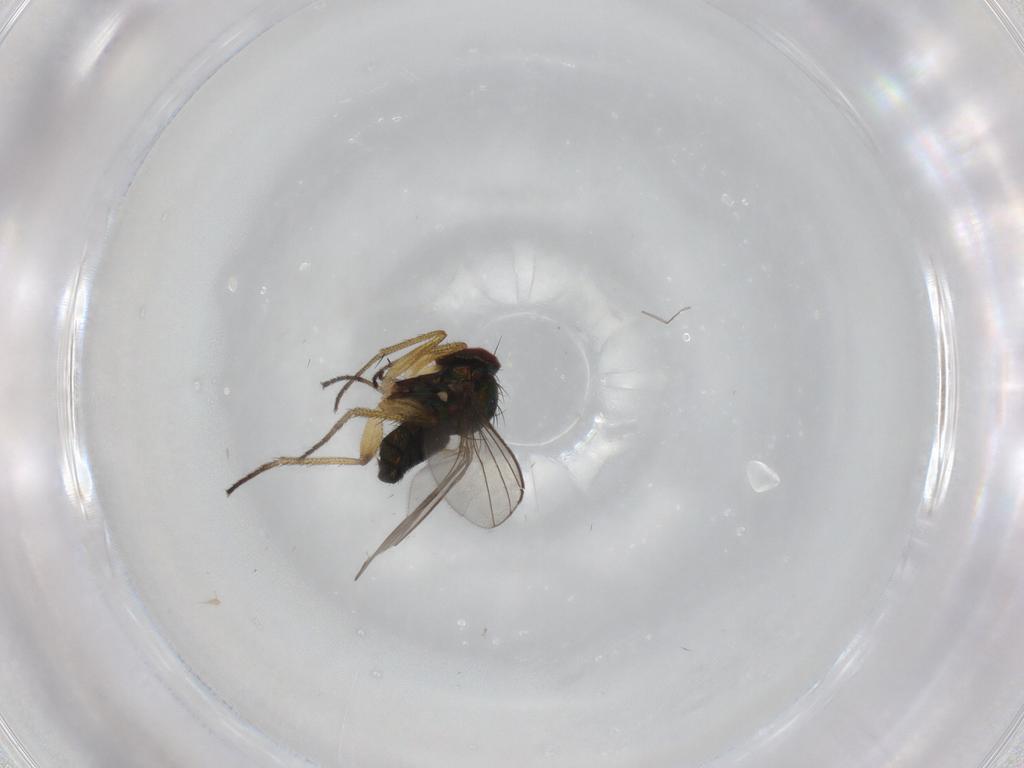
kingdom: Animalia
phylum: Arthropoda
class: Insecta
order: Diptera
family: Dolichopodidae
